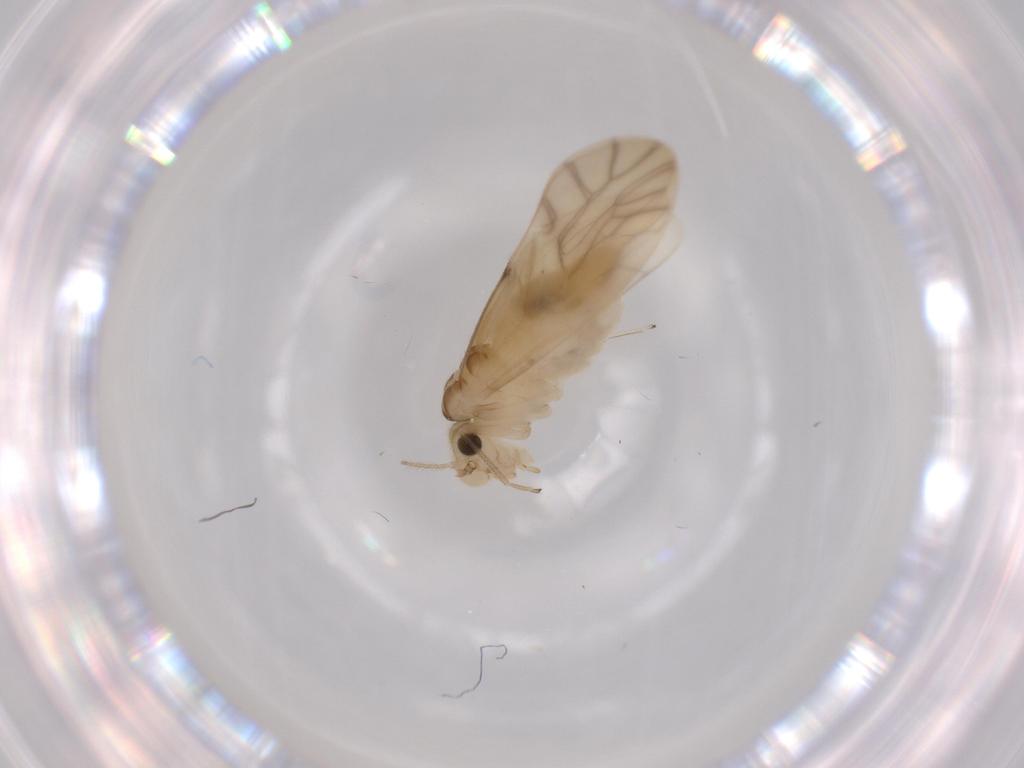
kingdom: Animalia
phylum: Arthropoda
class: Insecta
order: Psocodea
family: Caeciliusidae
